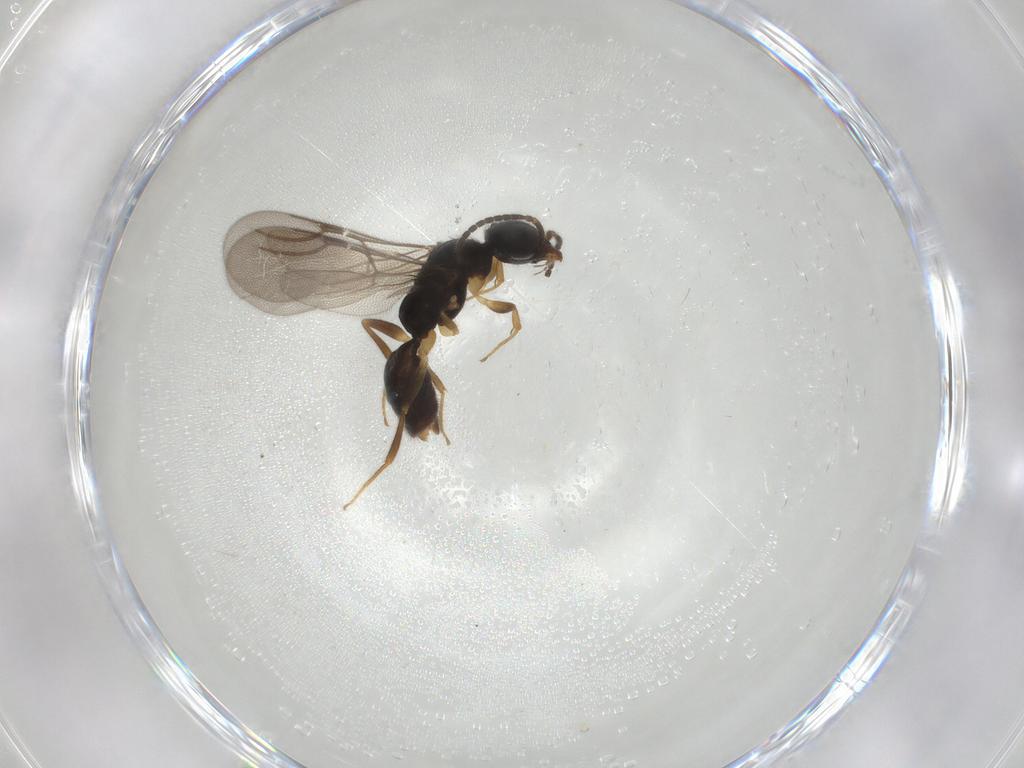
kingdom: Animalia
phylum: Arthropoda
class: Insecta
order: Hymenoptera
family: Bethylidae
